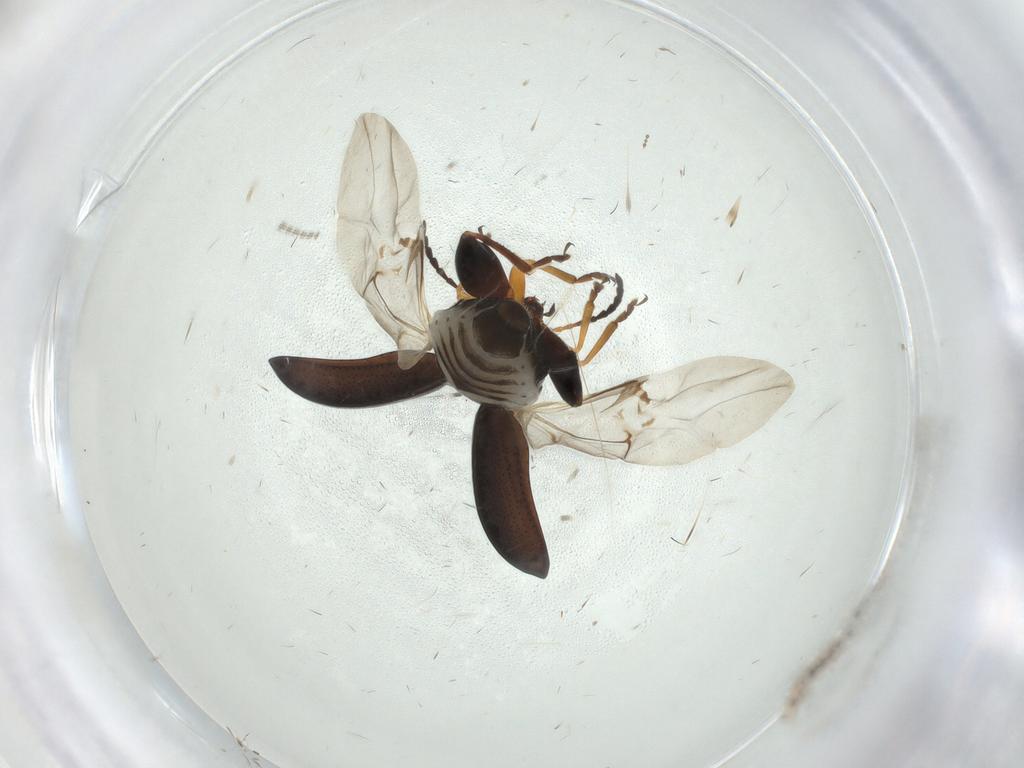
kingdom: Animalia
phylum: Arthropoda
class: Insecta
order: Coleoptera
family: Chrysomelidae
